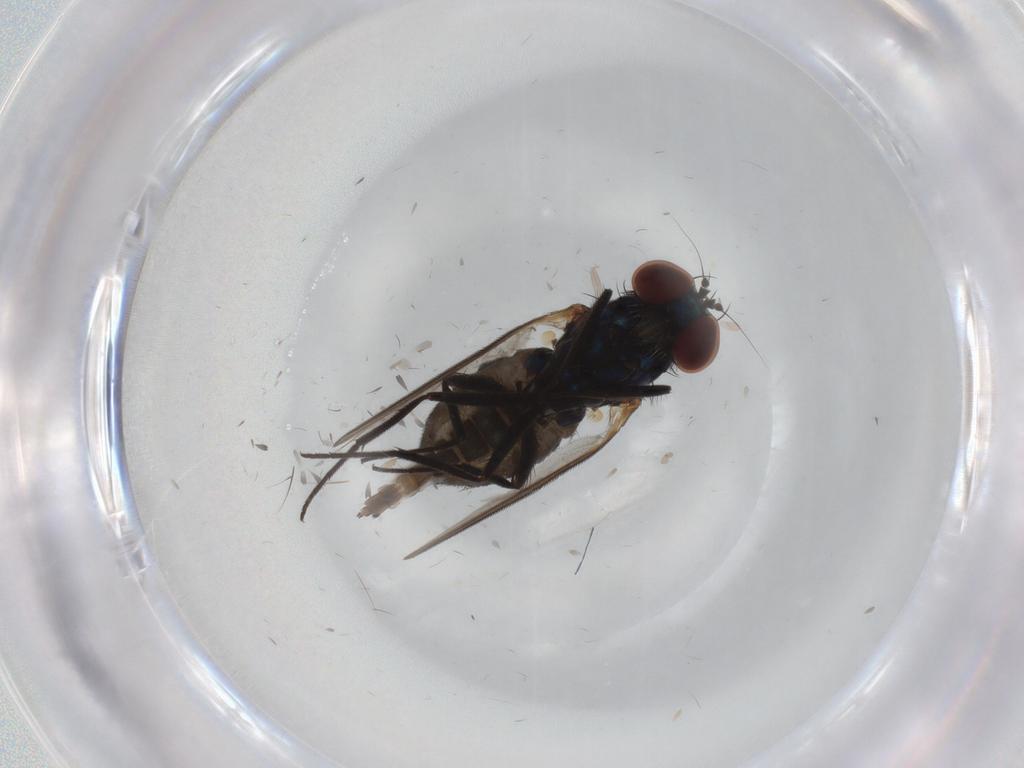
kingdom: Animalia
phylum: Arthropoda
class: Insecta
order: Diptera
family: Dolichopodidae
